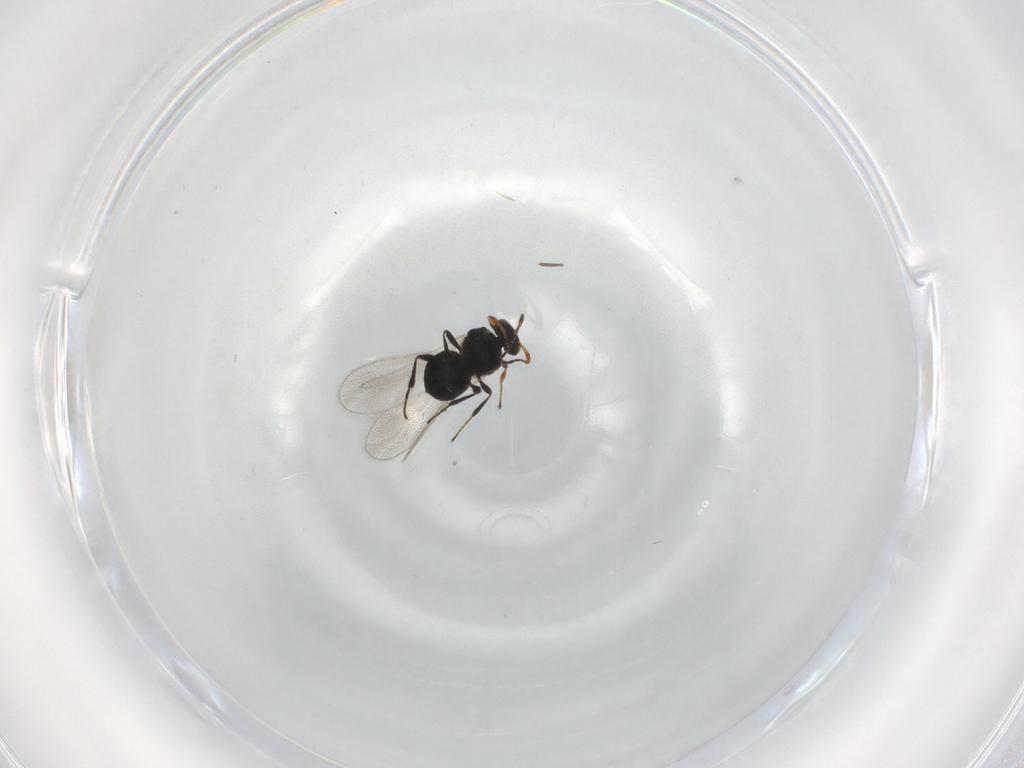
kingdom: Animalia
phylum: Arthropoda
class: Insecta
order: Hymenoptera
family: Platygastridae
